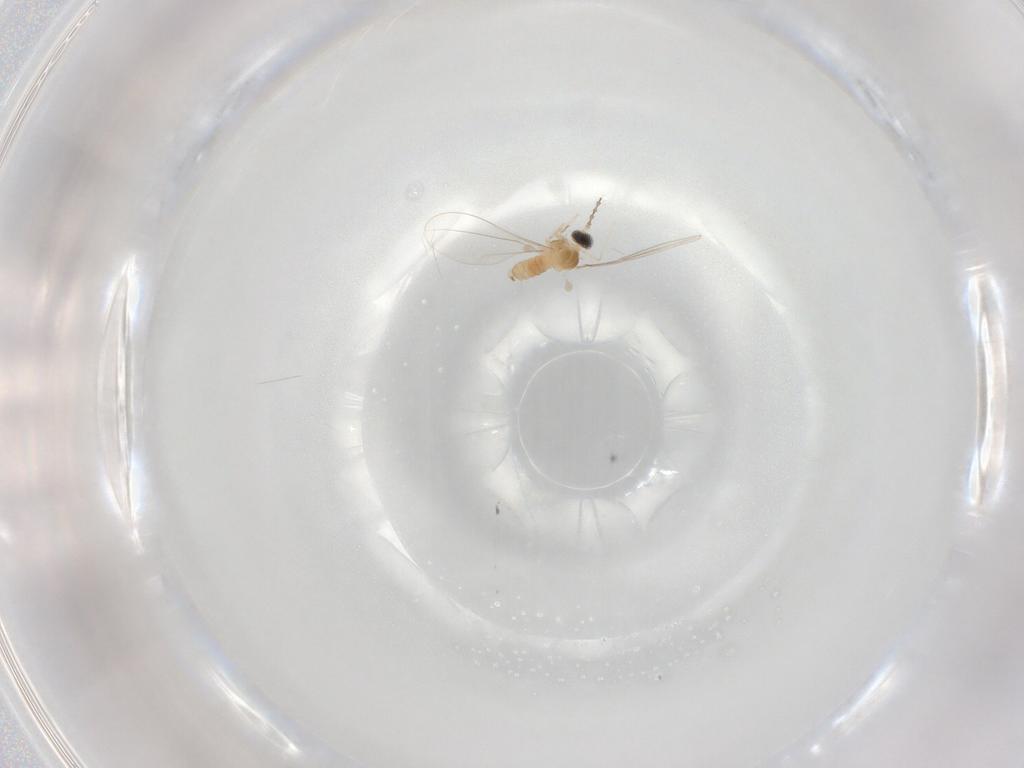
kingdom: Animalia
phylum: Arthropoda
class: Insecta
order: Diptera
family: Cecidomyiidae
